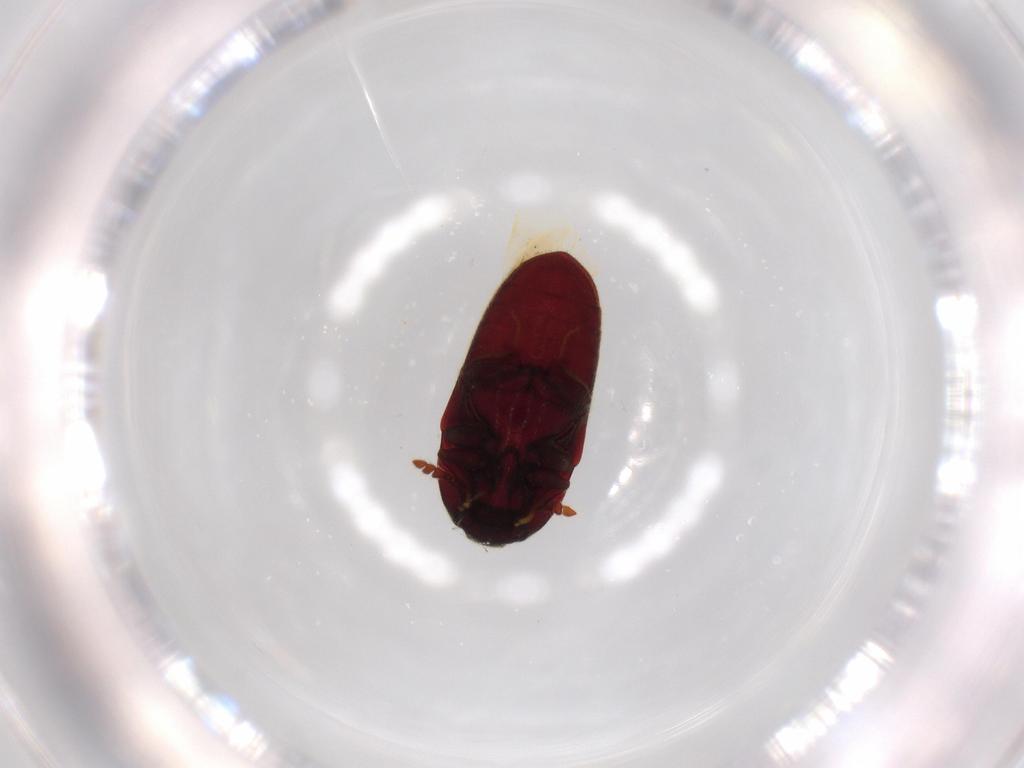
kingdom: Animalia
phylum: Arthropoda
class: Insecta
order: Coleoptera
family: Throscidae
